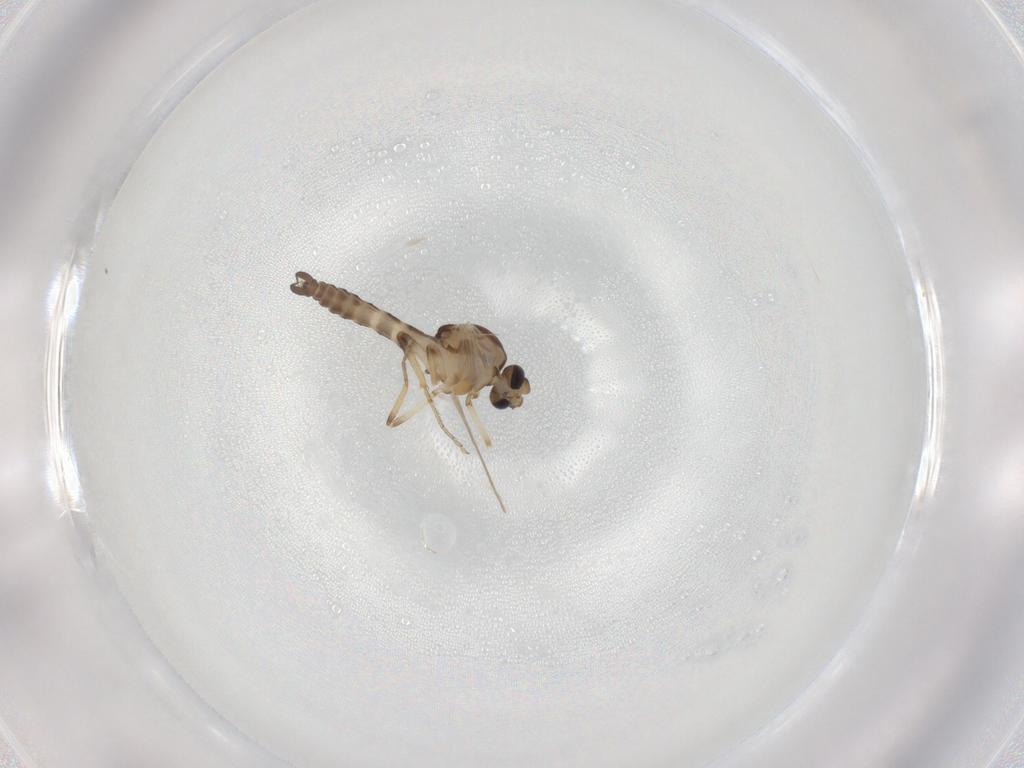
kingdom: Animalia
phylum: Arthropoda
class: Insecta
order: Diptera
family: Ceratopogonidae
